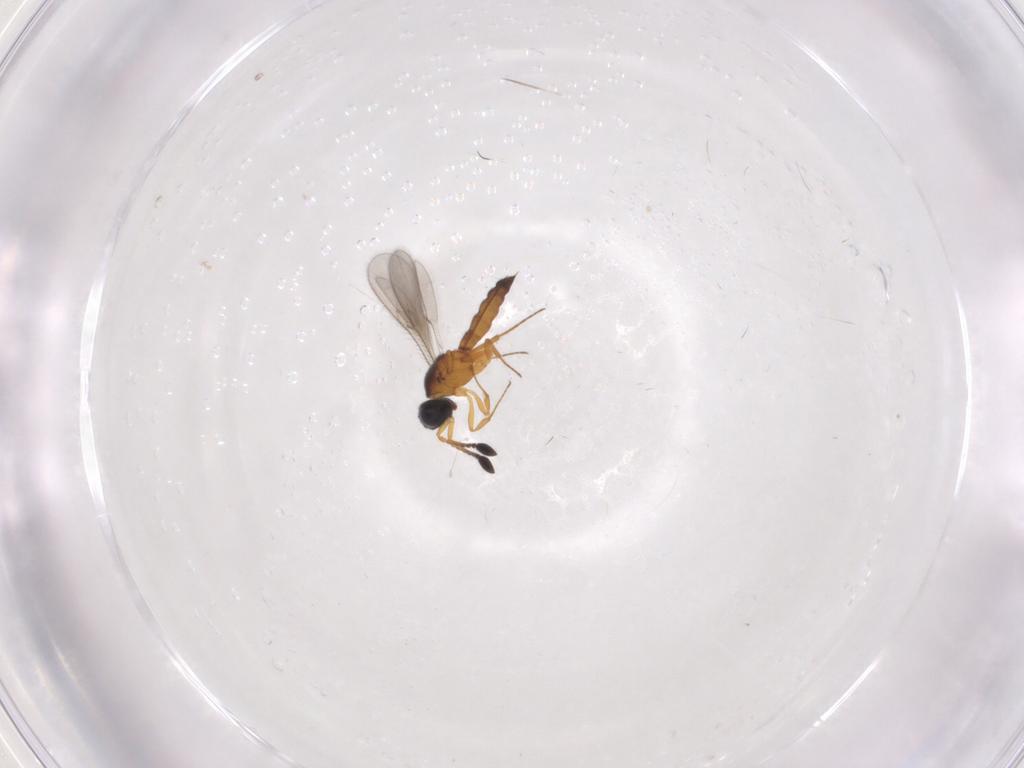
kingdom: Animalia
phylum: Arthropoda
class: Insecta
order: Hymenoptera
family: Scelionidae
